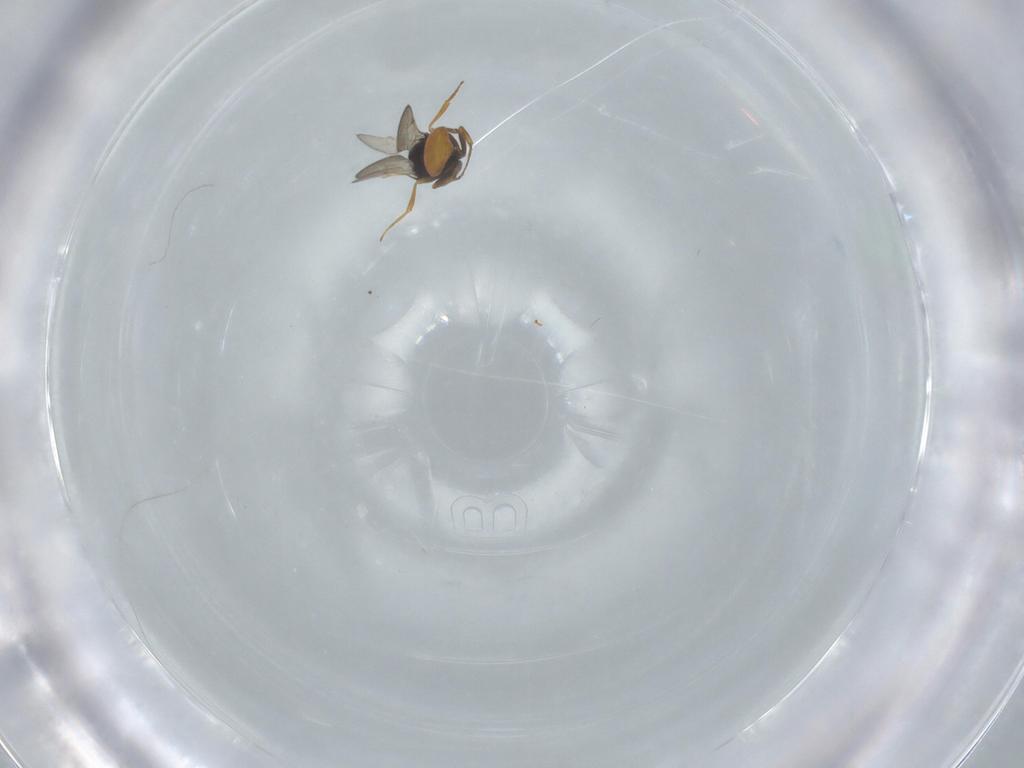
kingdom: Animalia
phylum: Arthropoda
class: Insecta
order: Hymenoptera
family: Scelionidae
